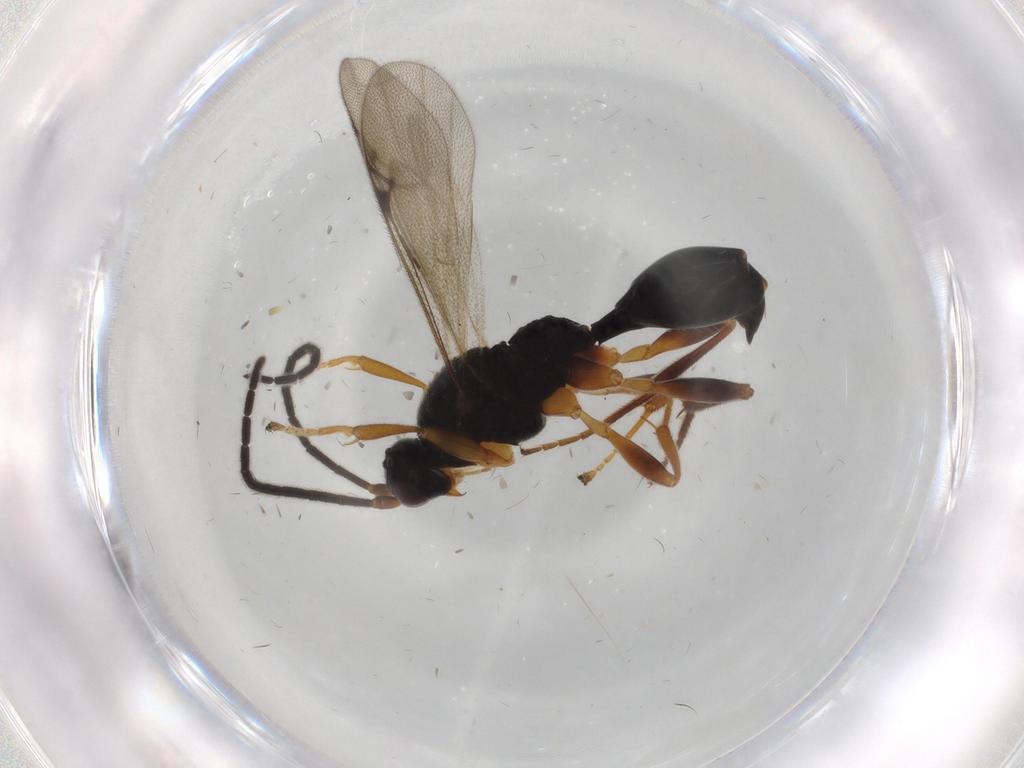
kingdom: Animalia
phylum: Arthropoda
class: Insecta
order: Hymenoptera
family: Proctotrupidae
